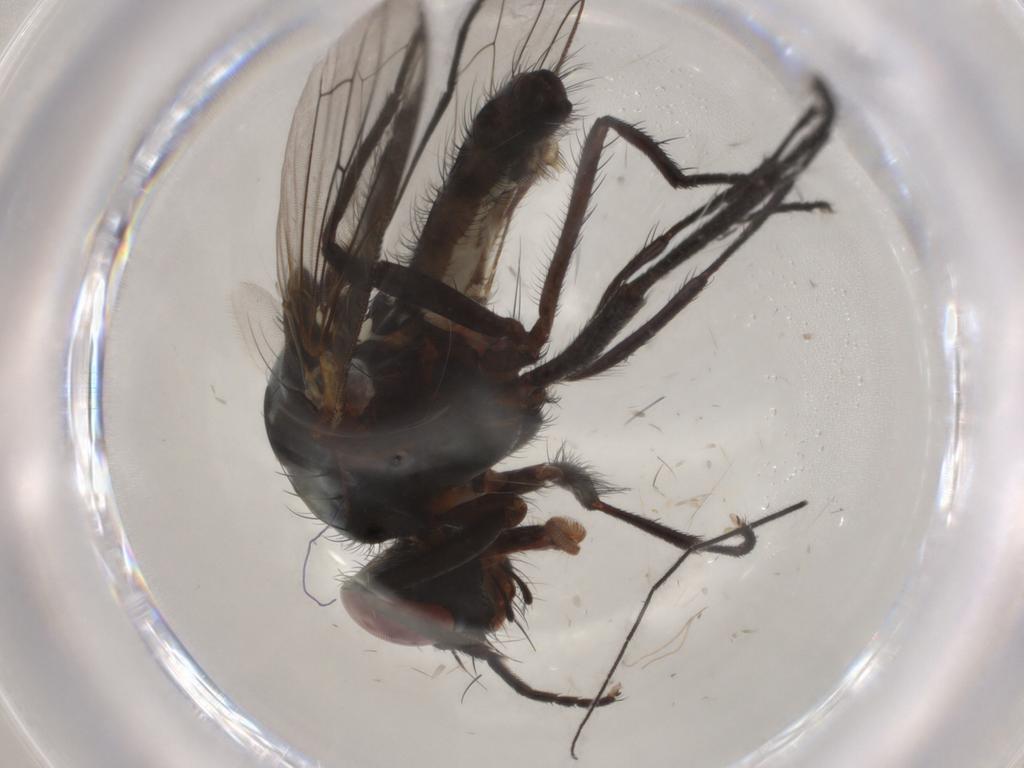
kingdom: Animalia
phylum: Arthropoda
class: Insecta
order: Diptera
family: Anthomyiidae
